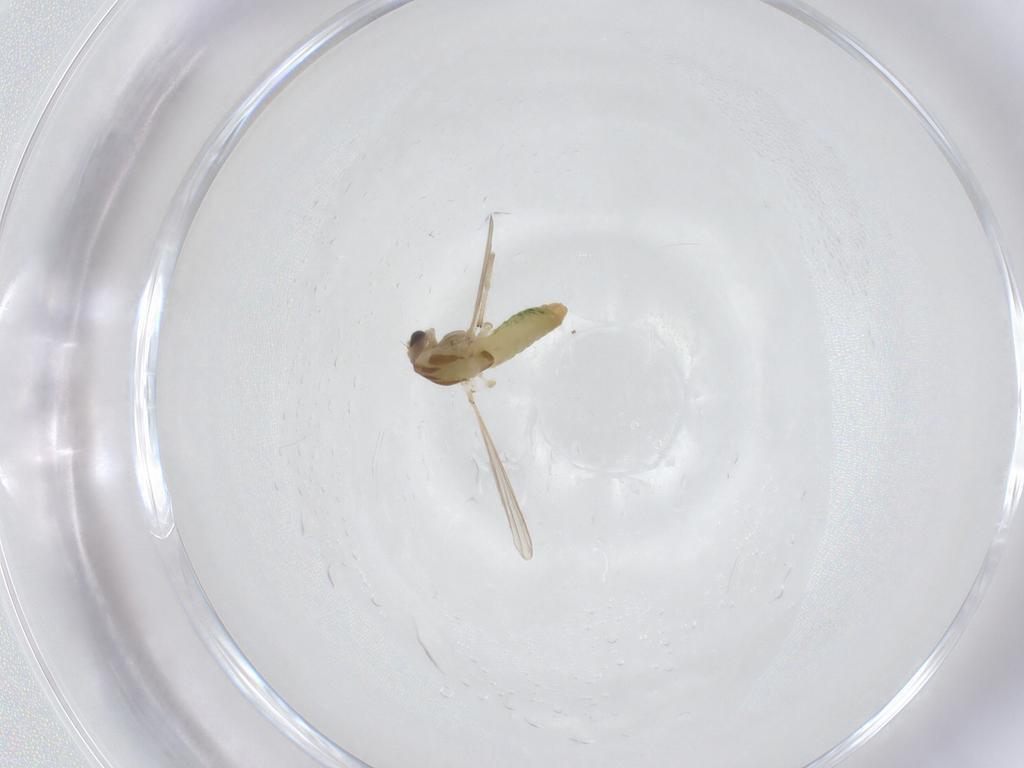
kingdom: Animalia
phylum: Arthropoda
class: Insecta
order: Diptera
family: Chironomidae
